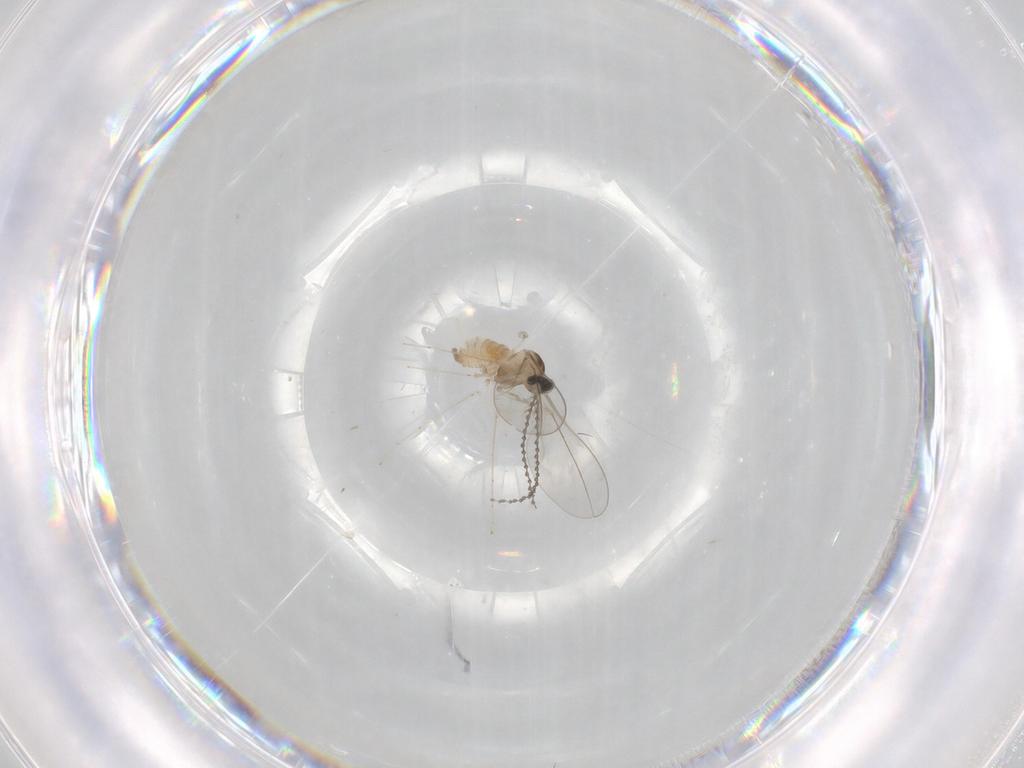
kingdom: Animalia
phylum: Arthropoda
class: Insecta
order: Diptera
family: Cecidomyiidae
